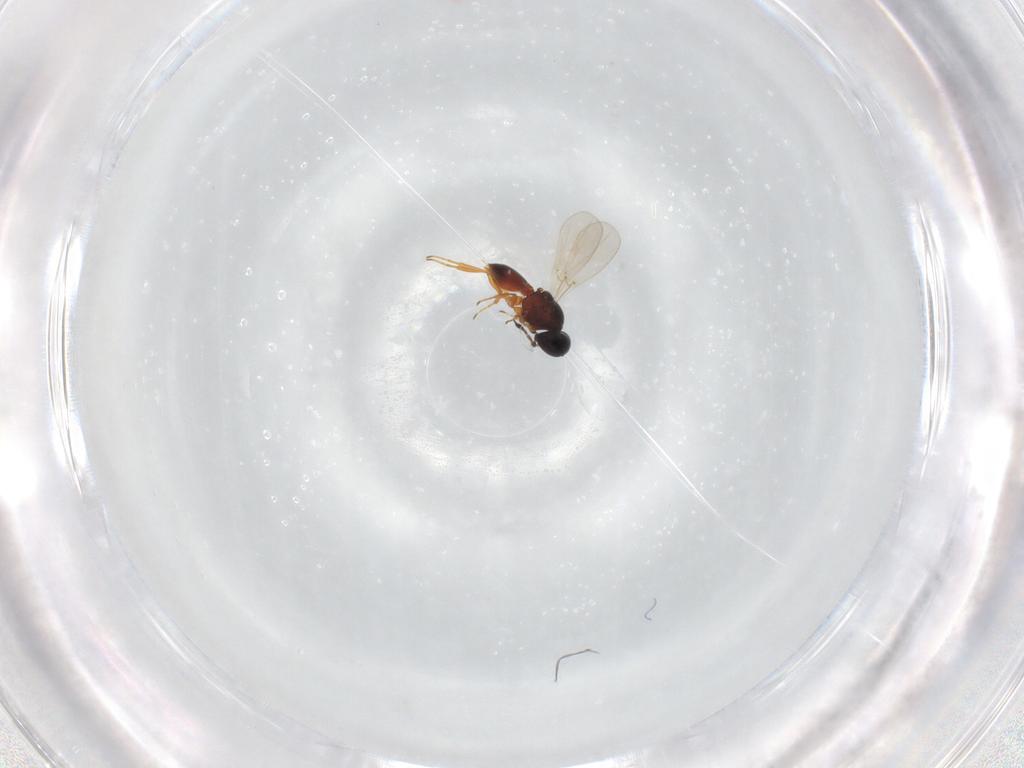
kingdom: Animalia
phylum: Arthropoda
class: Insecta
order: Hymenoptera
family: Platygastridae
